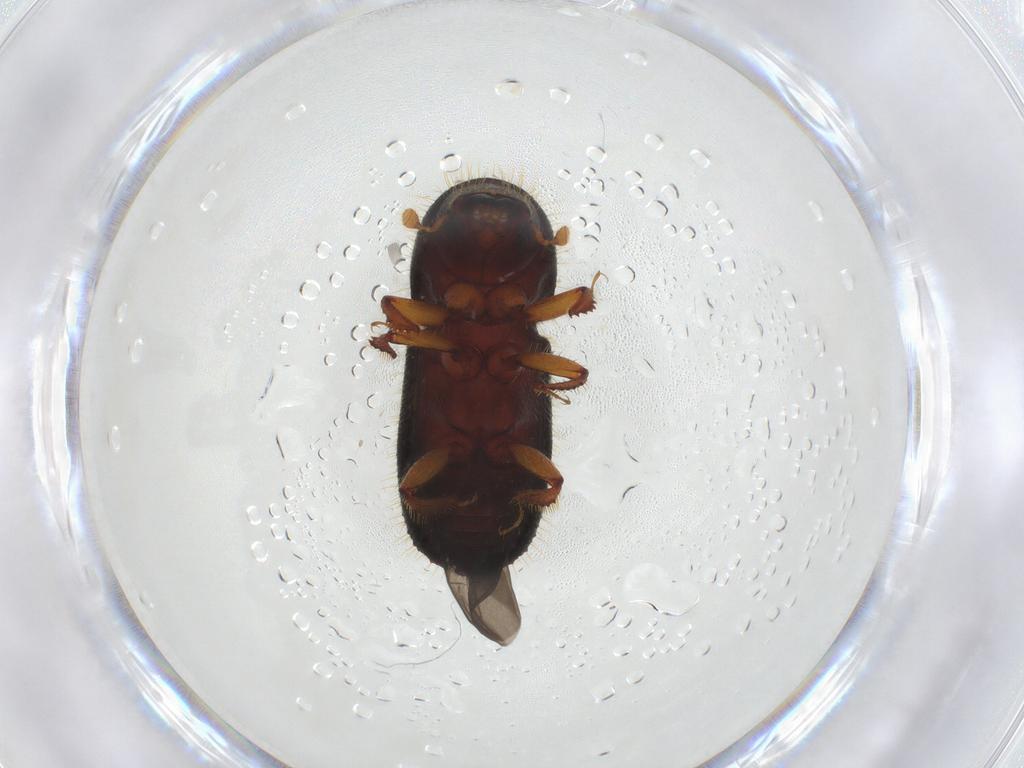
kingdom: Animalia
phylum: Arthropoda
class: Insecta
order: Coleoptera
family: Curculionidae
